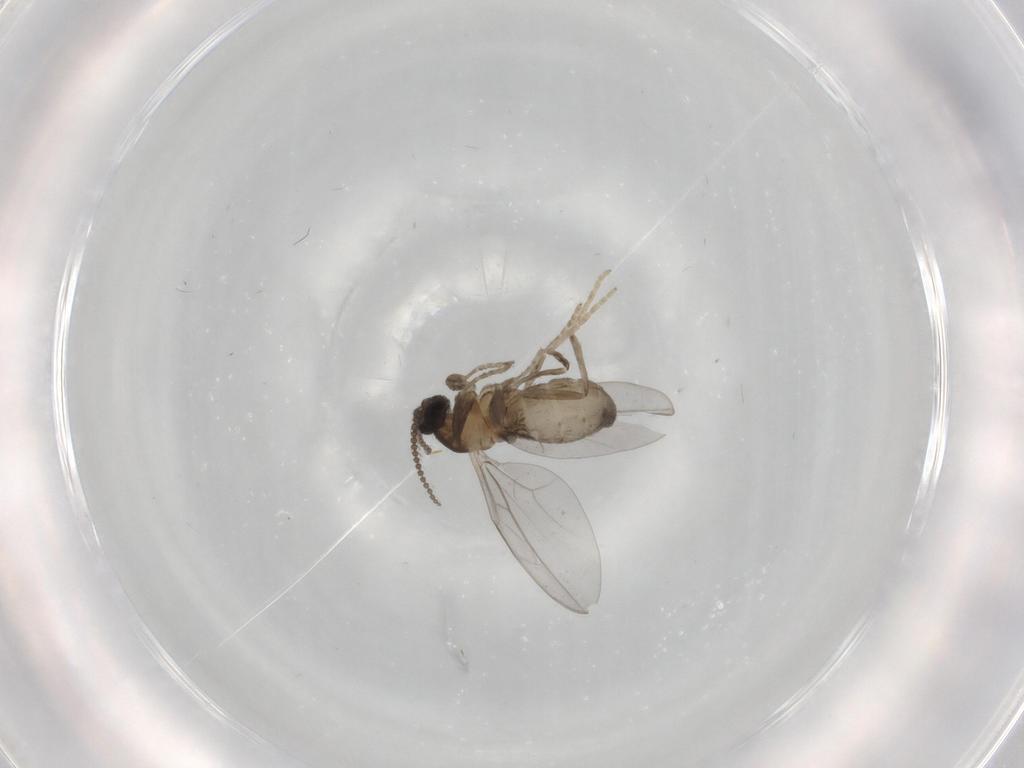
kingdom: Animalia
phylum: Arthropoda
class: Insecta
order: Diptera
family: Cecidomyiidae
